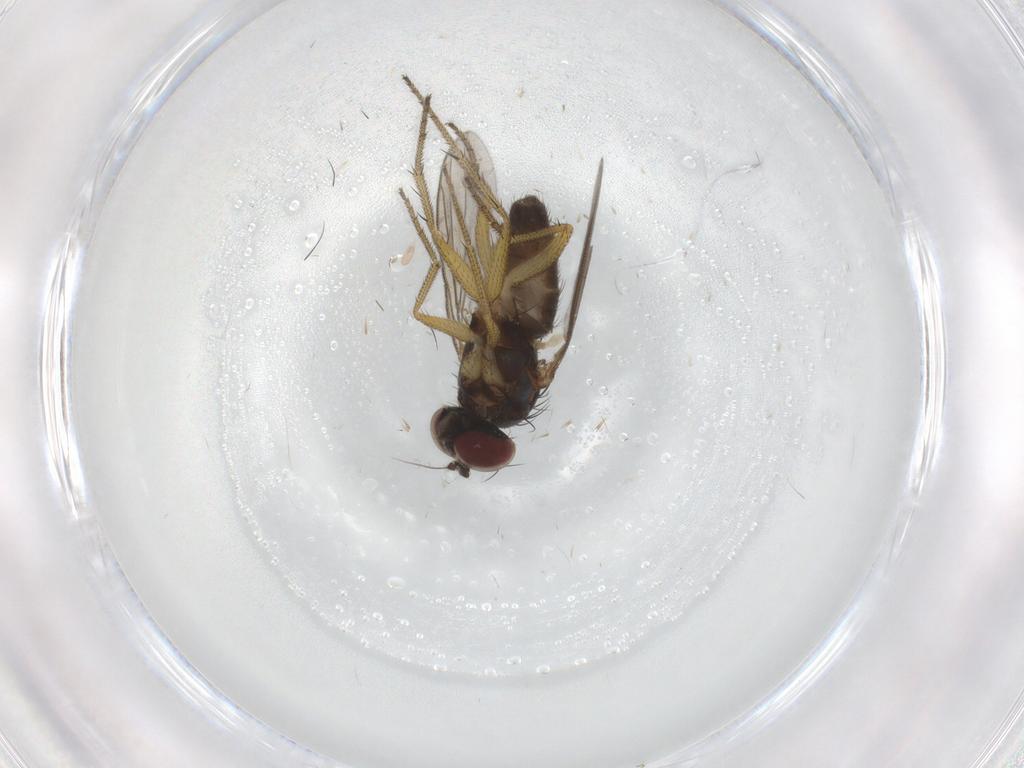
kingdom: Animalia
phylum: Arthropoda
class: Insecta
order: Diptera
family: Dolichopodidae
